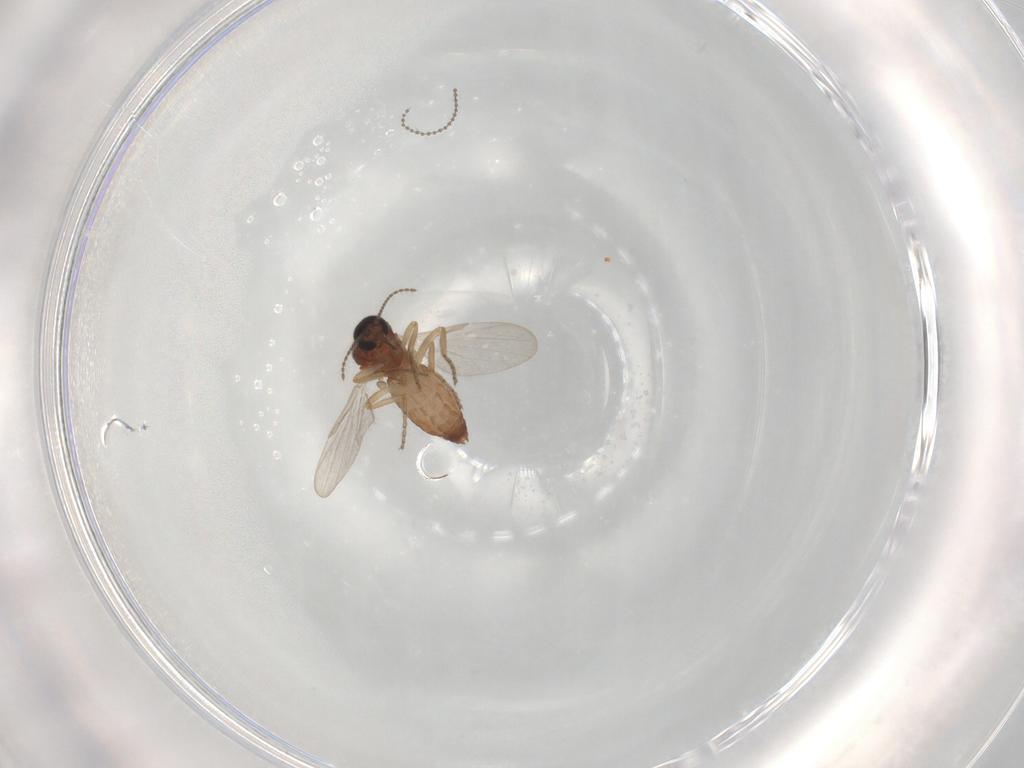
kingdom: Animalia
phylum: Arthropoda
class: Insecta
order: Diptera
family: Ceratopogonidae
